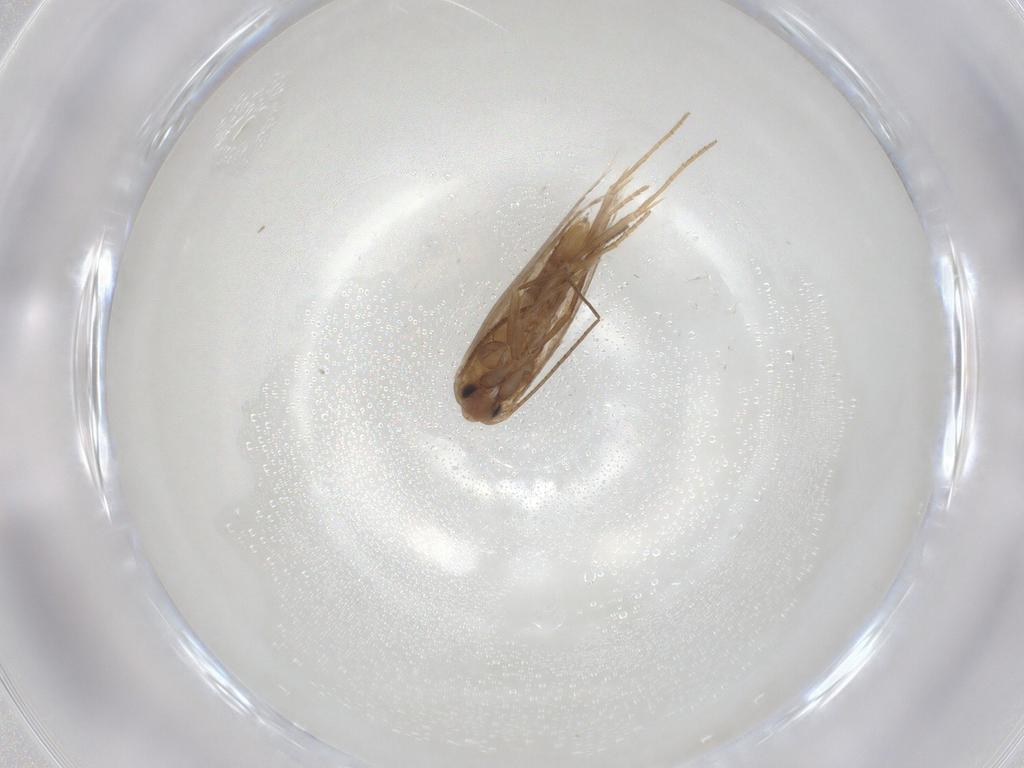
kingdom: Animalia
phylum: Arthropoda
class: Insecta
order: Lepidoptera
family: Bucculatricidae
